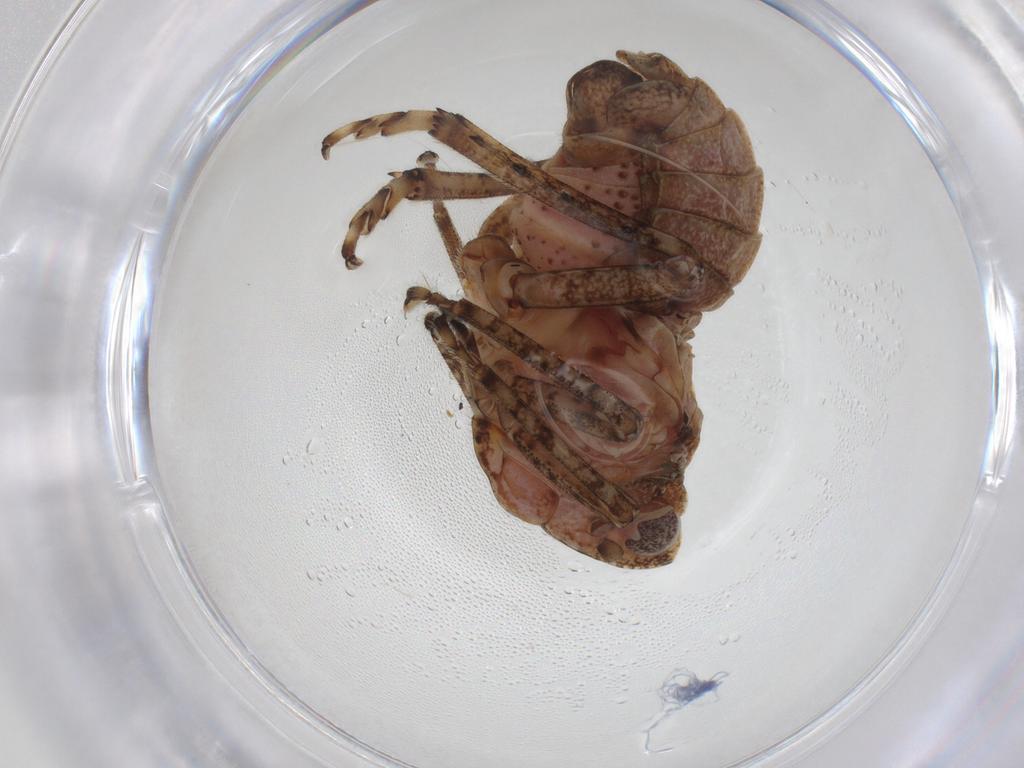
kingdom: Animalia
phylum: Arthropoda
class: Insecta
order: Hemiptera
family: Tropiduchidae
